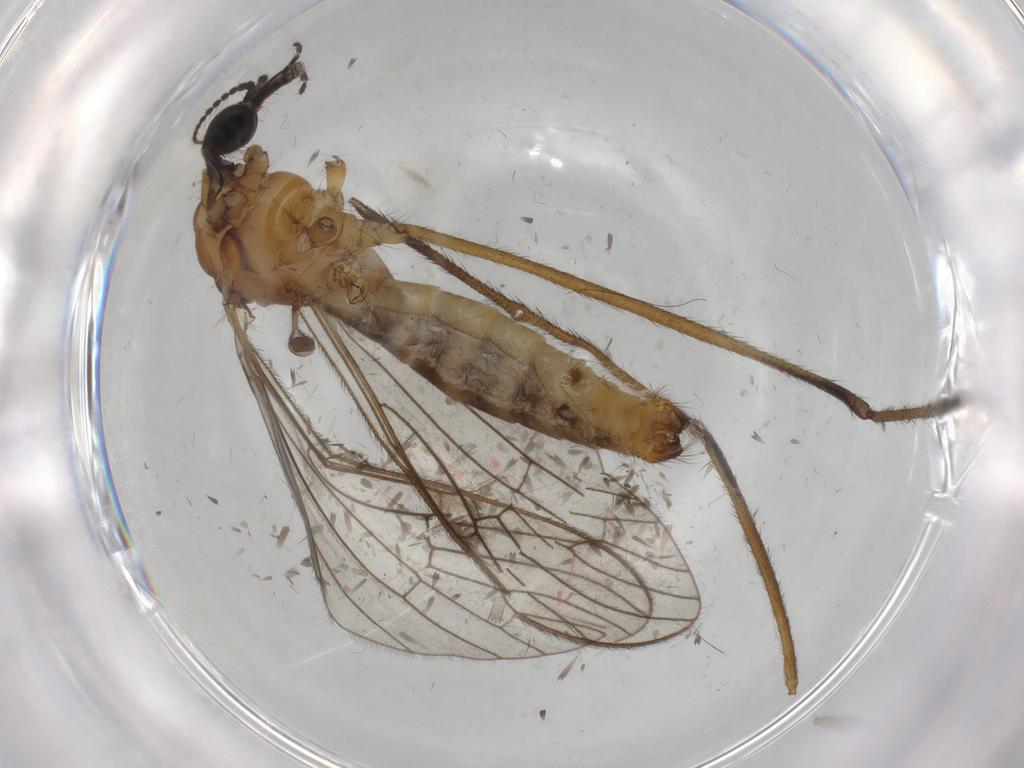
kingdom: Animalia
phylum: Arthropoda
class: Insecta
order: Diptera
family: Limoniidae
